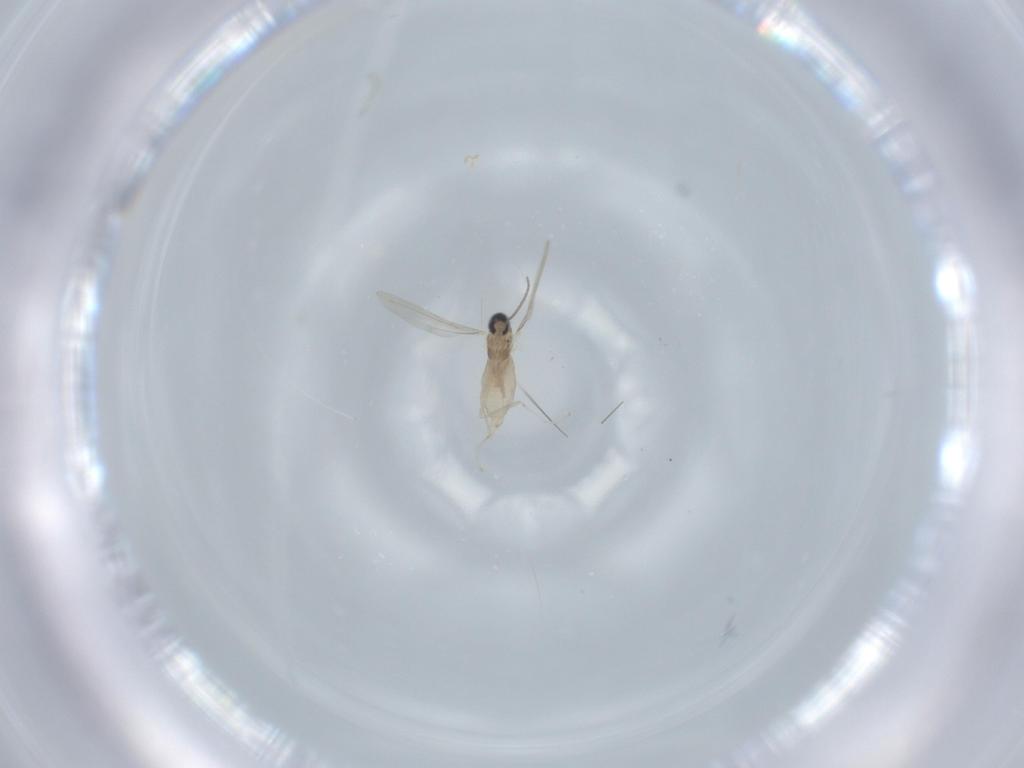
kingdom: Animalia
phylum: Arthropoda
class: Insecta
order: Diptera
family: Cecidomyiidae
